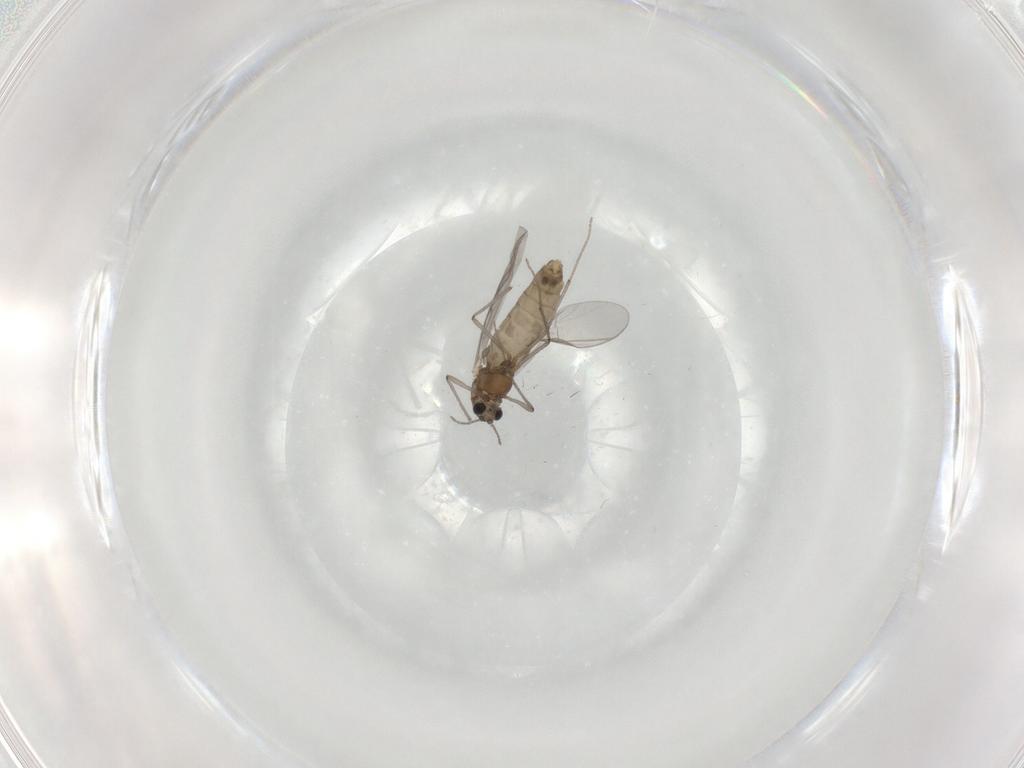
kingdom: Animalia
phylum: Arthropoda
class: Insecta
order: Diptera
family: Chironomidae
